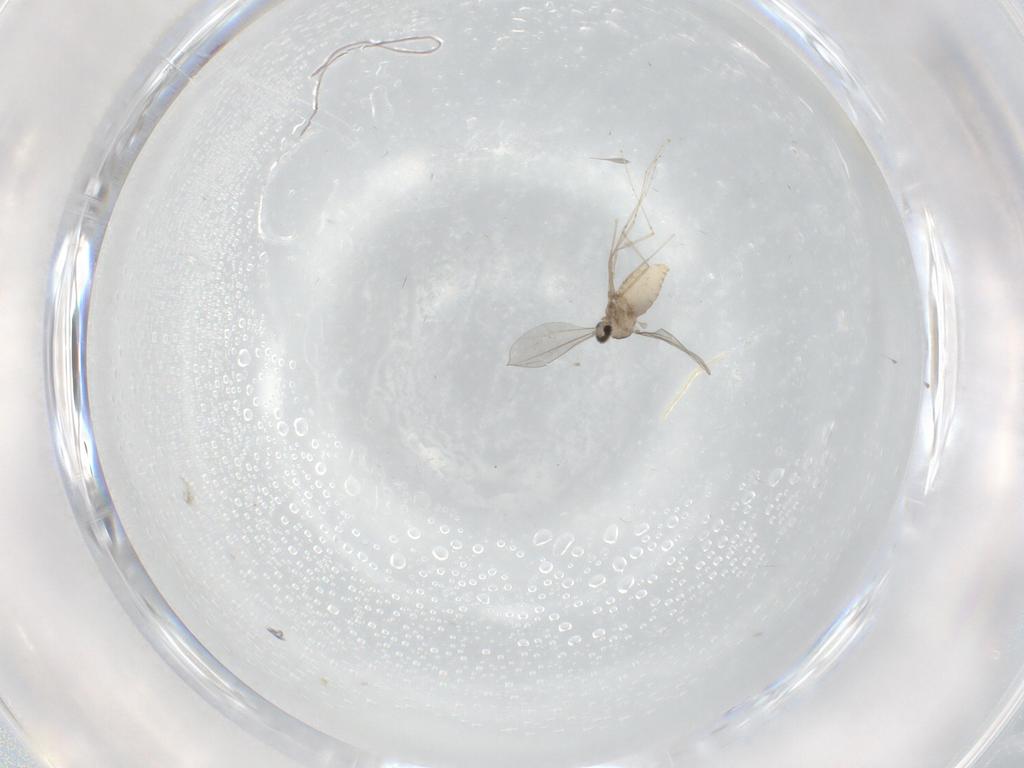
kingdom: Animalia
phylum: Arthropoda
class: Insecta
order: Diptera
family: Cecidomyiidae
